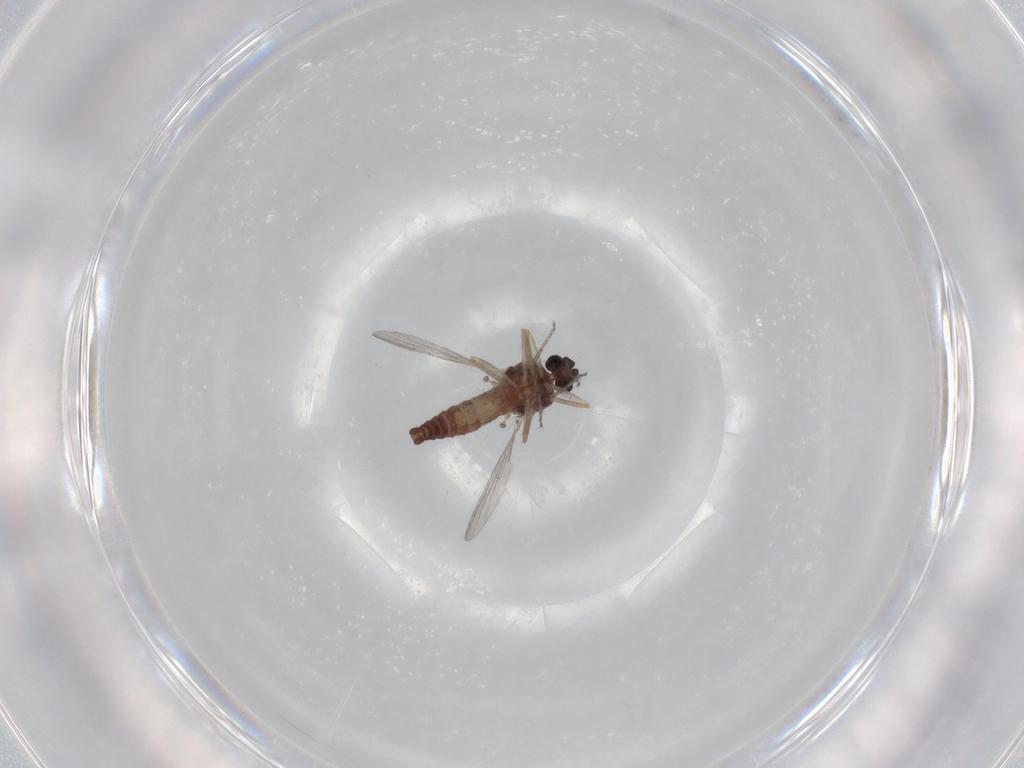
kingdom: Animalia
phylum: Arthropoda
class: Insecta
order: Diptera
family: Ceratopogonidae
